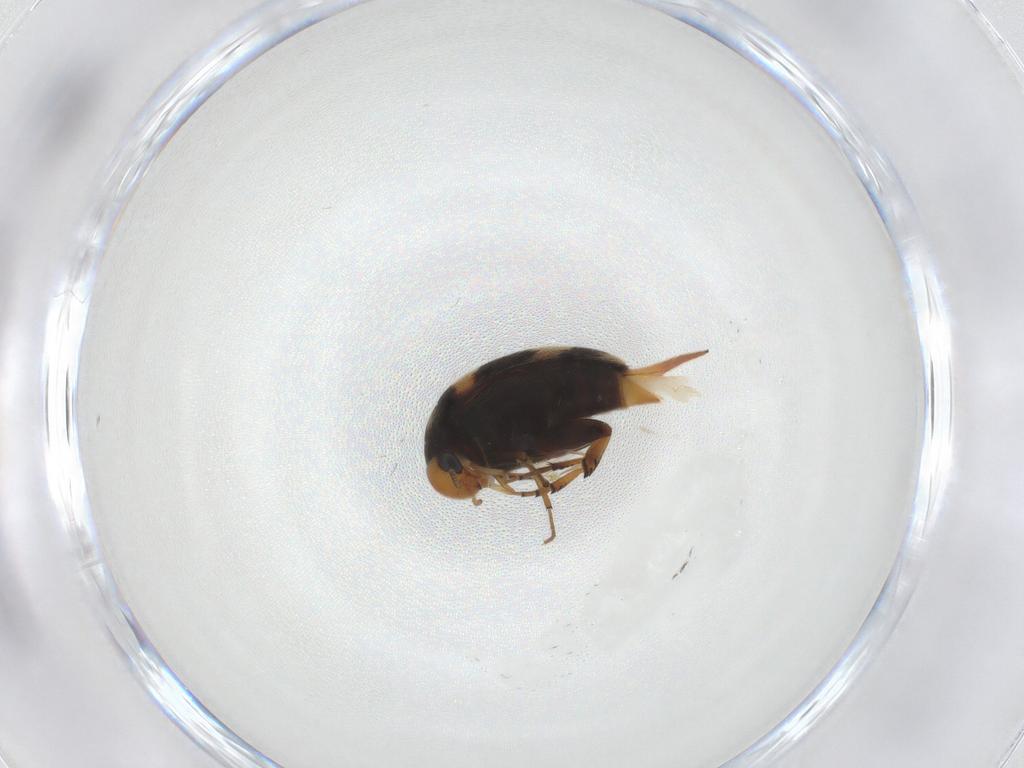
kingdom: Animalia
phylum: Arthropoda
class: Insecta
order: Coleoptera
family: Mordellidae
